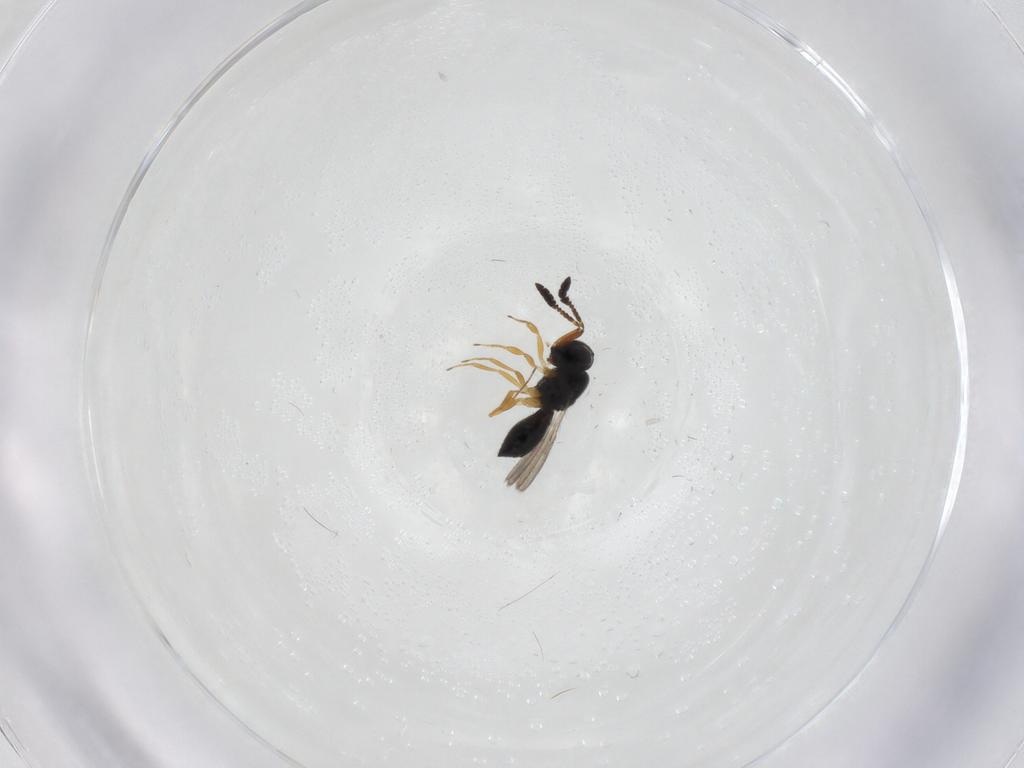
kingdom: Animalia
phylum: Arthropoda
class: Insecta
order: Hymenoptera
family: Scelionidae
